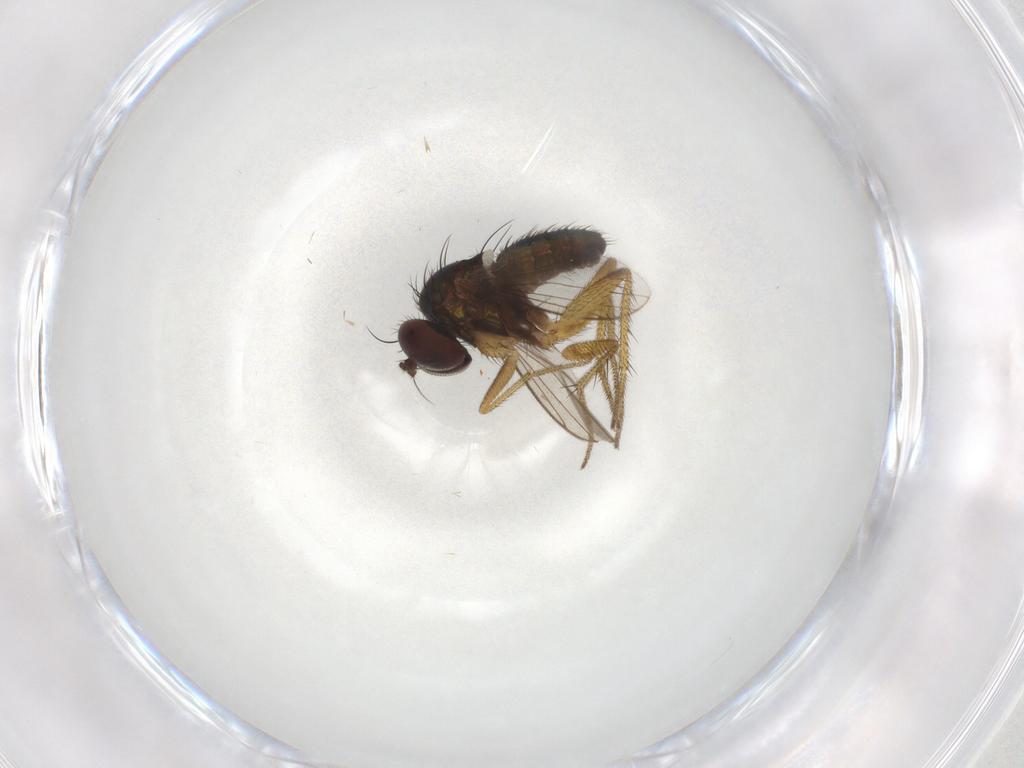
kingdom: Animalia
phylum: Arthropoda
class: Insecta
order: Diptera
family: Dolichopodidae
